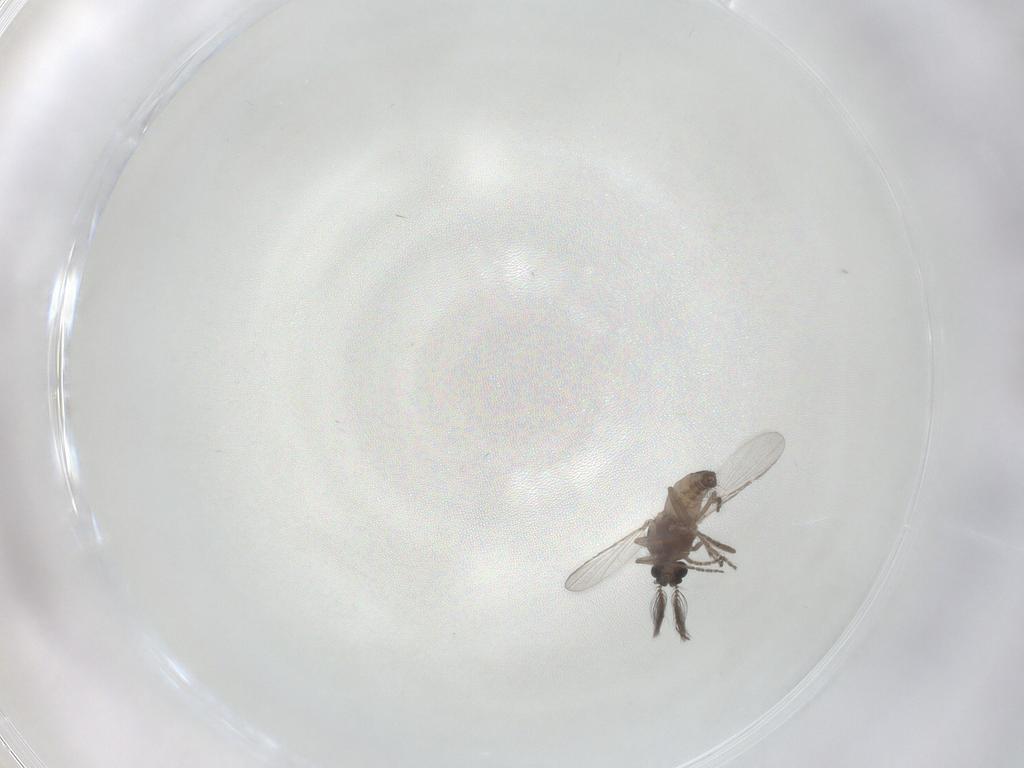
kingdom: Animalia
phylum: Arthropoda
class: Insecta
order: Diptera
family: Ceratopogonidae
